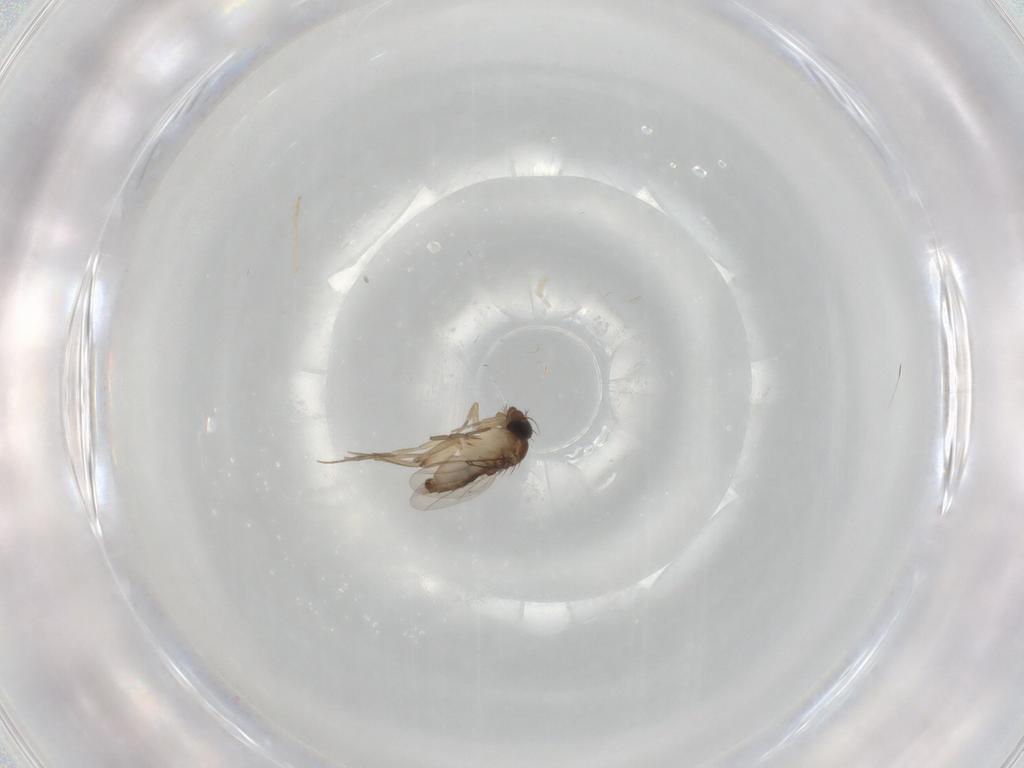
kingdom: Animalia
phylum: Arthropoda
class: Insecta
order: Diptera
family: Phoridae
